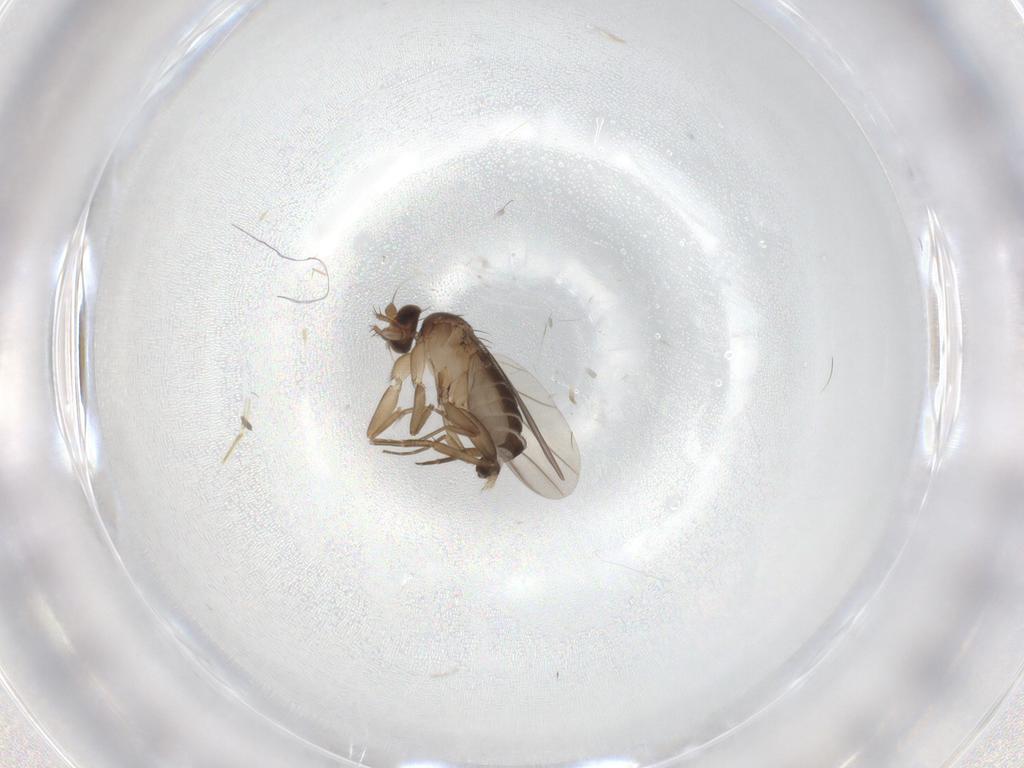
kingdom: Animalia
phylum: Arthropoda
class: Insecta
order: Diptera
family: Phoridae
